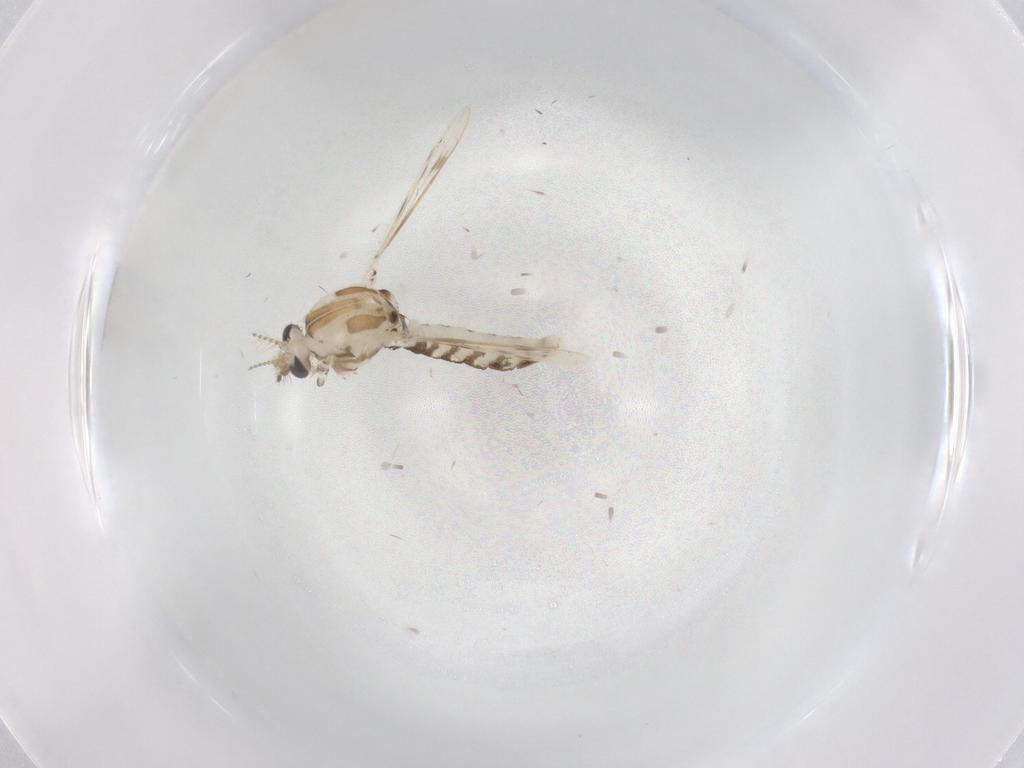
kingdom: Animalia
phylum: Arthropoda
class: Insecta
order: Diptera
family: Corethrellidae
